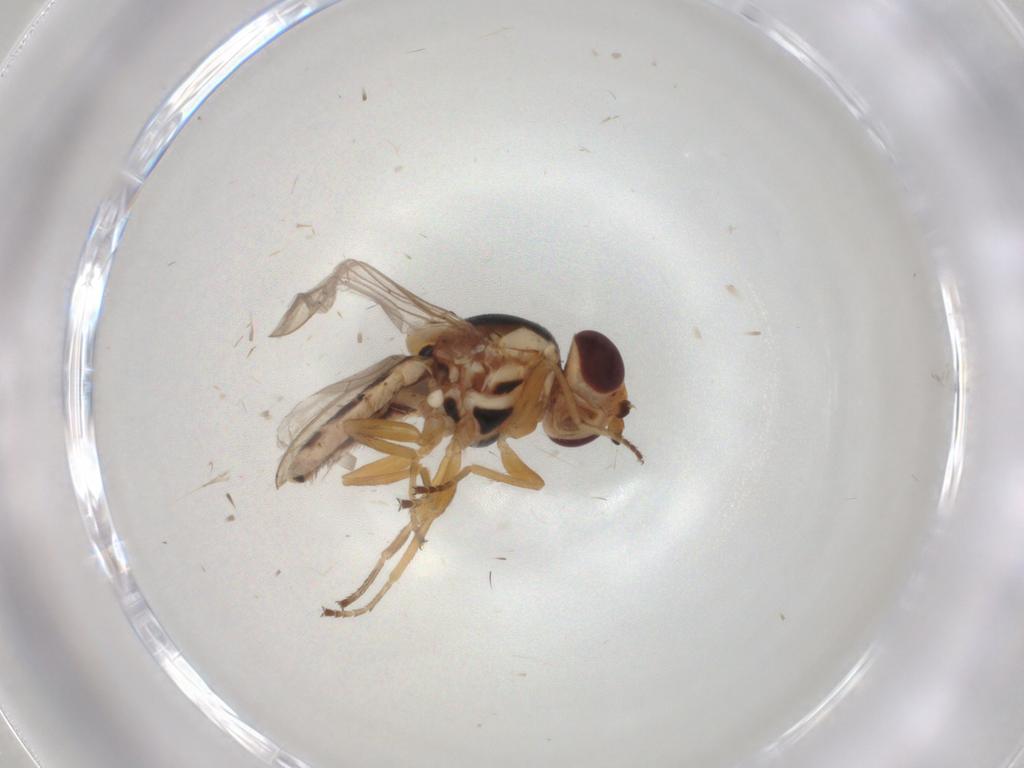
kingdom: Animalia
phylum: Arthropoda
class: Insecta
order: Diptera
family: Chloropidae
